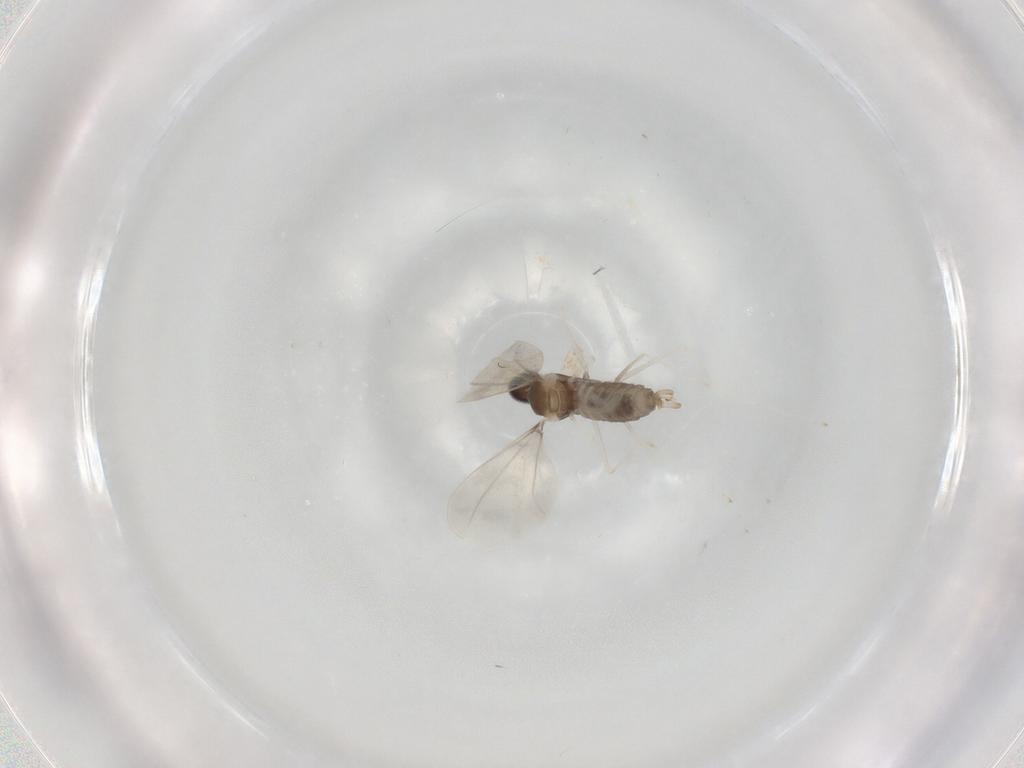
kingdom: Animalia
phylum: Arthropoda
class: Insecta
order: Diptera
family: Cecidomyiidae
